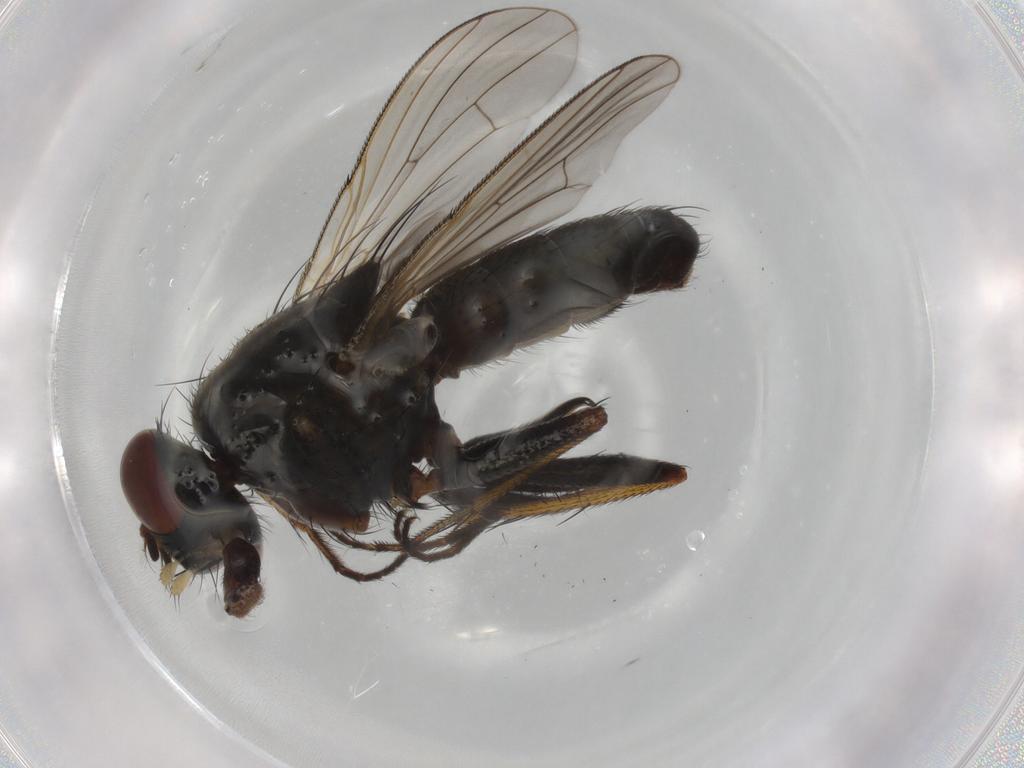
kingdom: Animalia
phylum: Arthropoda
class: Insecta
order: Diptera
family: Muscidae
